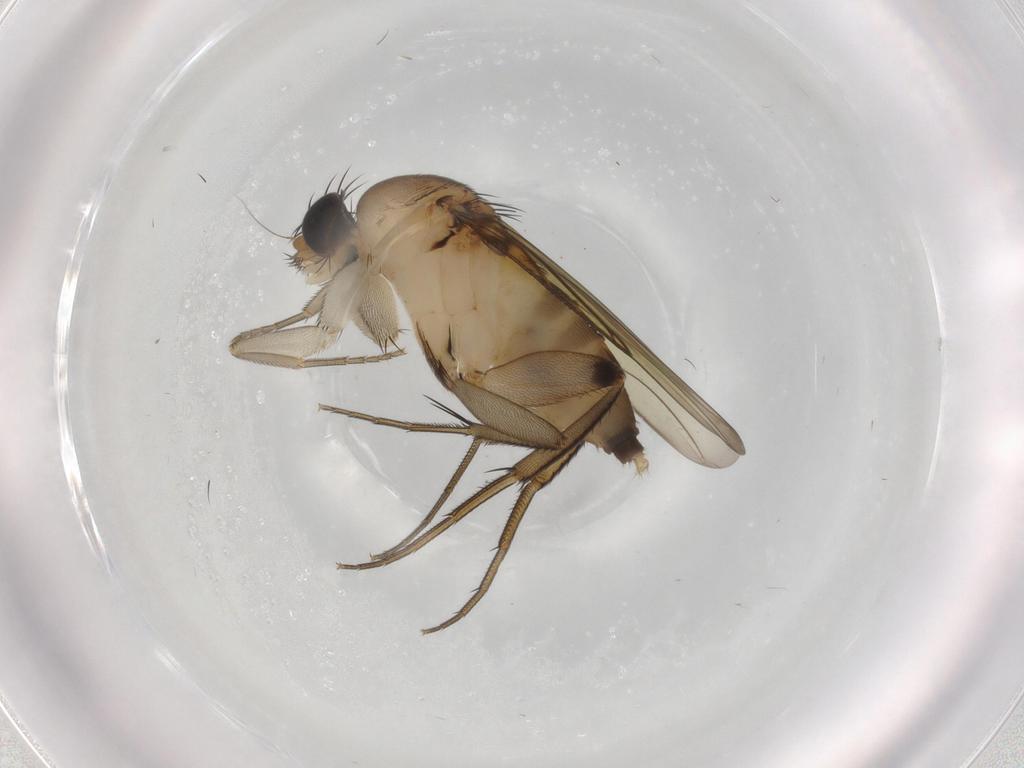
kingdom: Animalia
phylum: Arthropoda
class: Insecta
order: Diptera
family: Phoridae
